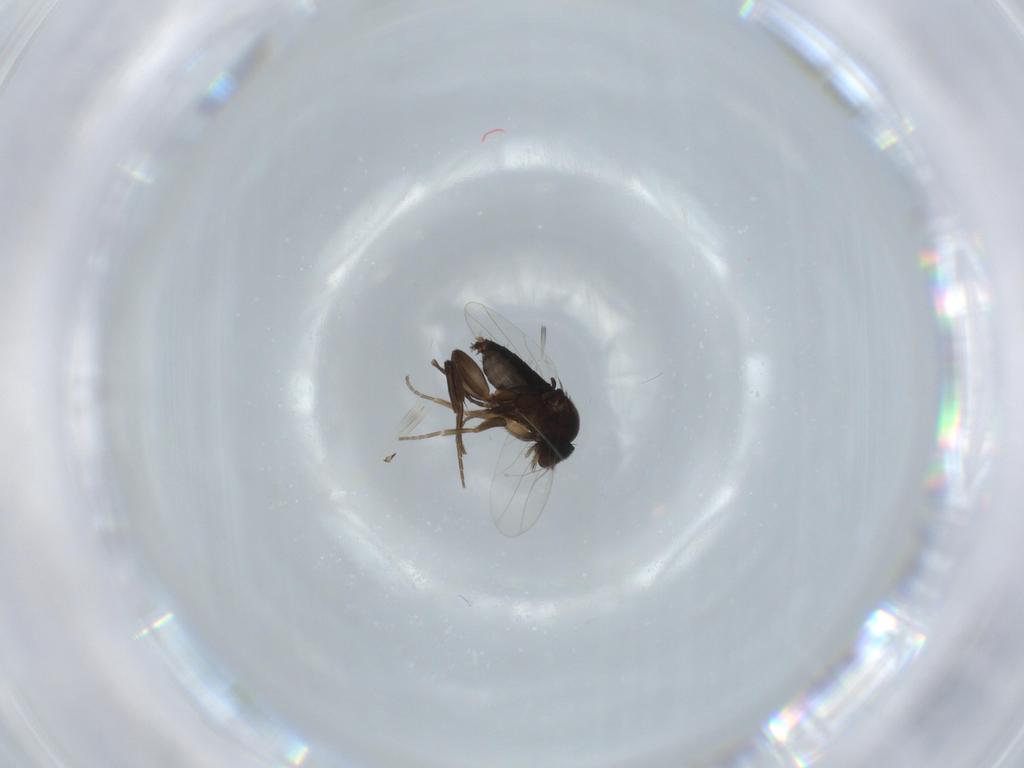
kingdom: Animalia
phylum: Arthropoda
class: Insecta
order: Diptera
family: Phoridae
